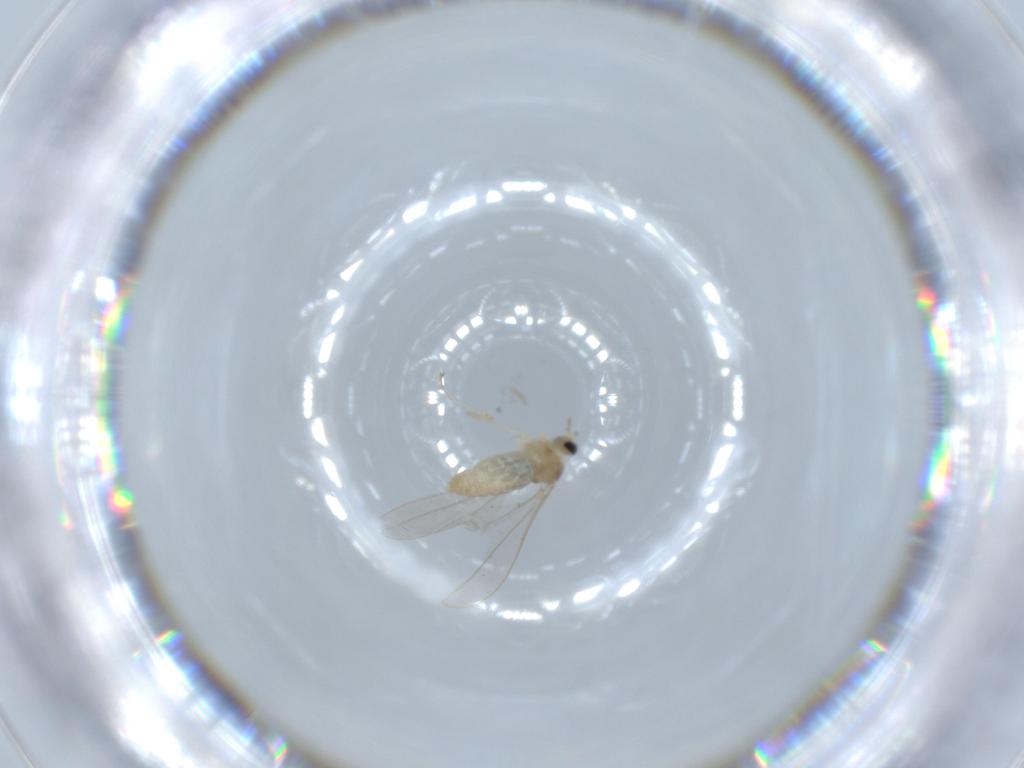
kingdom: Animalia
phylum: Arthropoda
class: Insecta
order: Diptera
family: Cecidomyiidae
